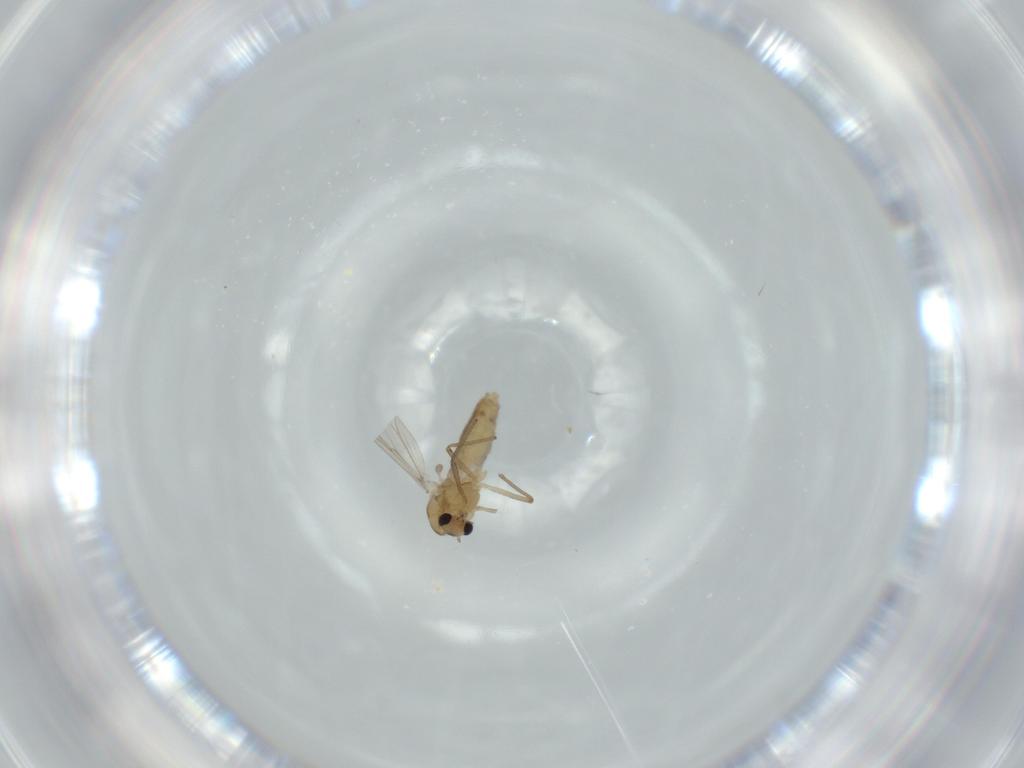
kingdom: Animalia
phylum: Arthropoda
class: Insecta
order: Diptera
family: Chironomidae
